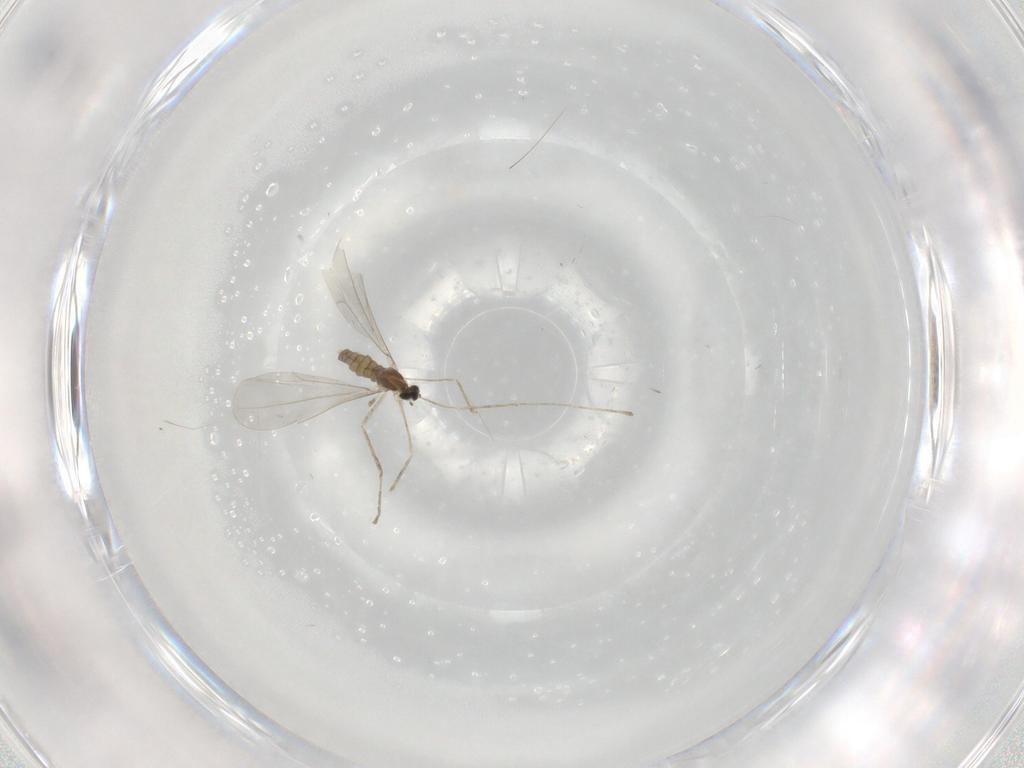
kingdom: Animalia
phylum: Arthropoda
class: Insecta
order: Diptera
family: Cecidomyiidae
